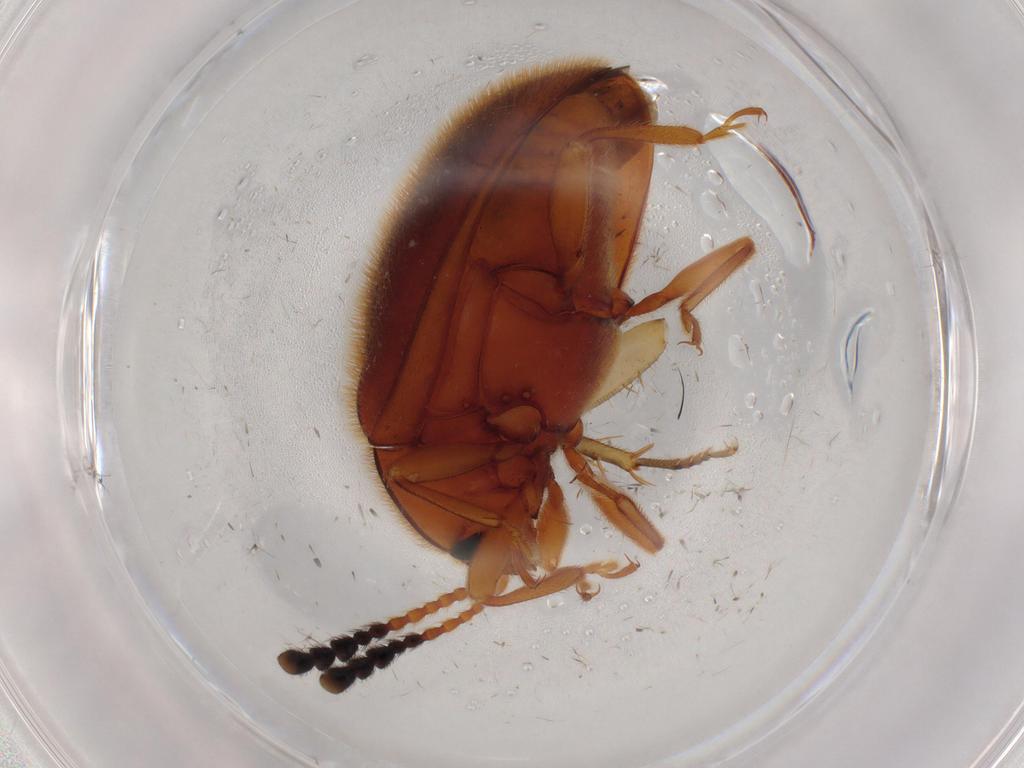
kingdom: Animalia
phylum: Arthropoda
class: Insecta
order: Coleoptera
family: Endomychidae
